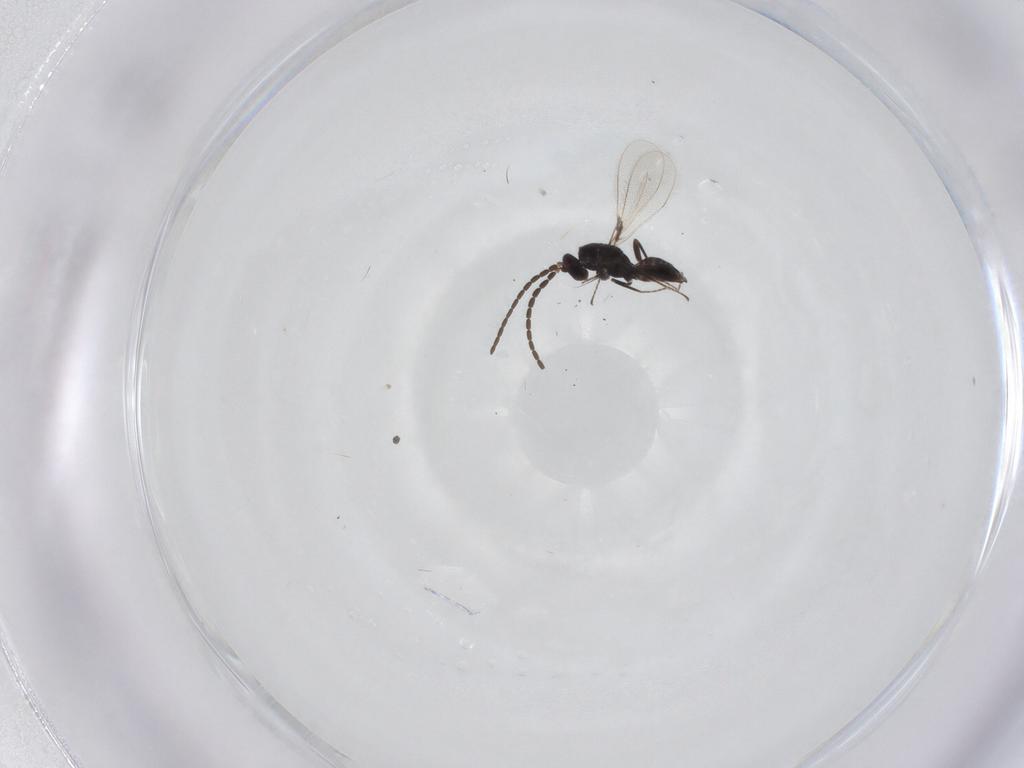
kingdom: Animalia
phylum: Arthropoda
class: Insecta
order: Hymenoptera
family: Mymaridae
